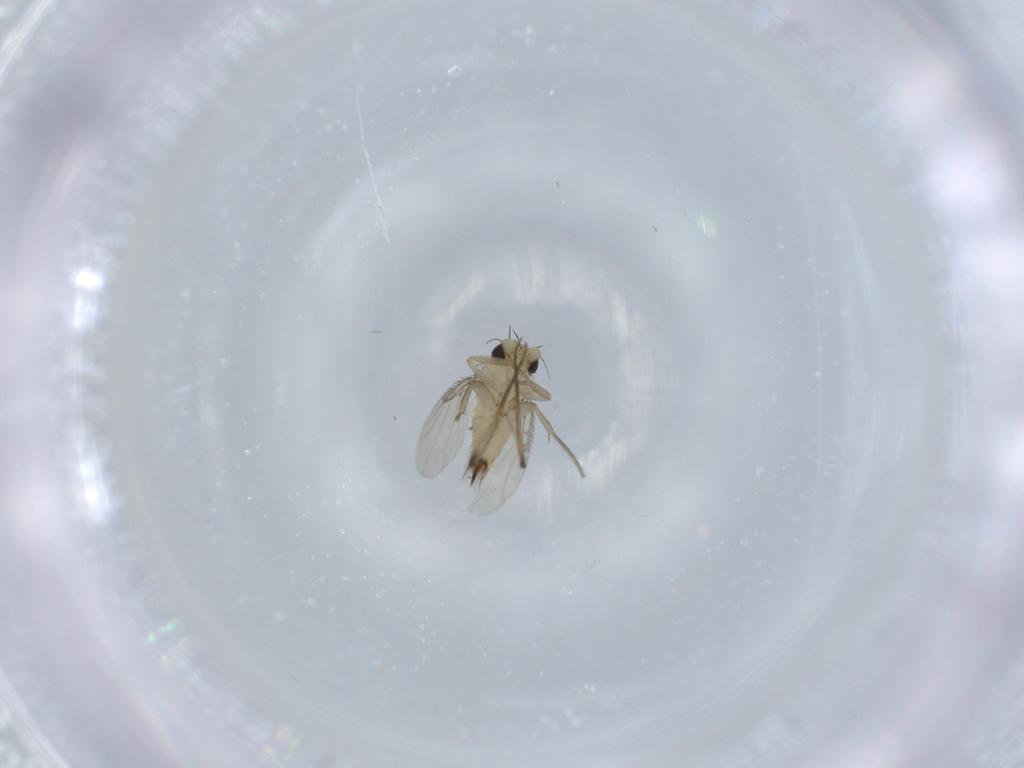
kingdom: Animalia
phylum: Arthropoda
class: Insecta
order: Diptera
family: Phoridae
